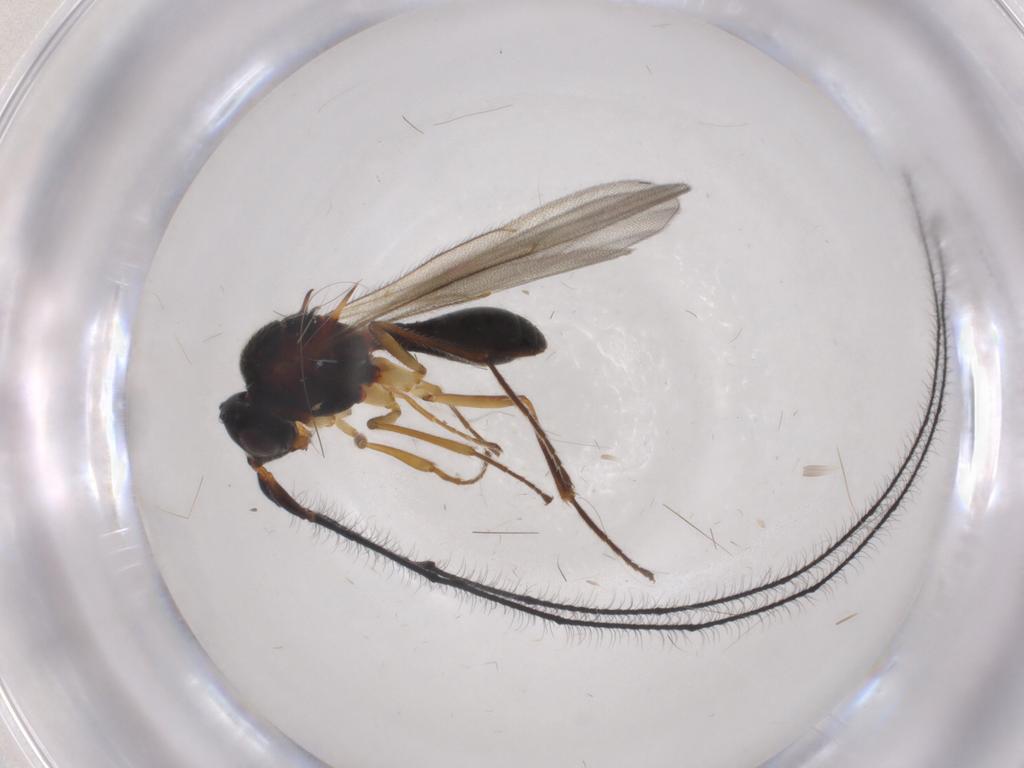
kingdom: Animalia
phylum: Arthropoda
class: Insecta
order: Hymenoptera
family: Scelionidae
